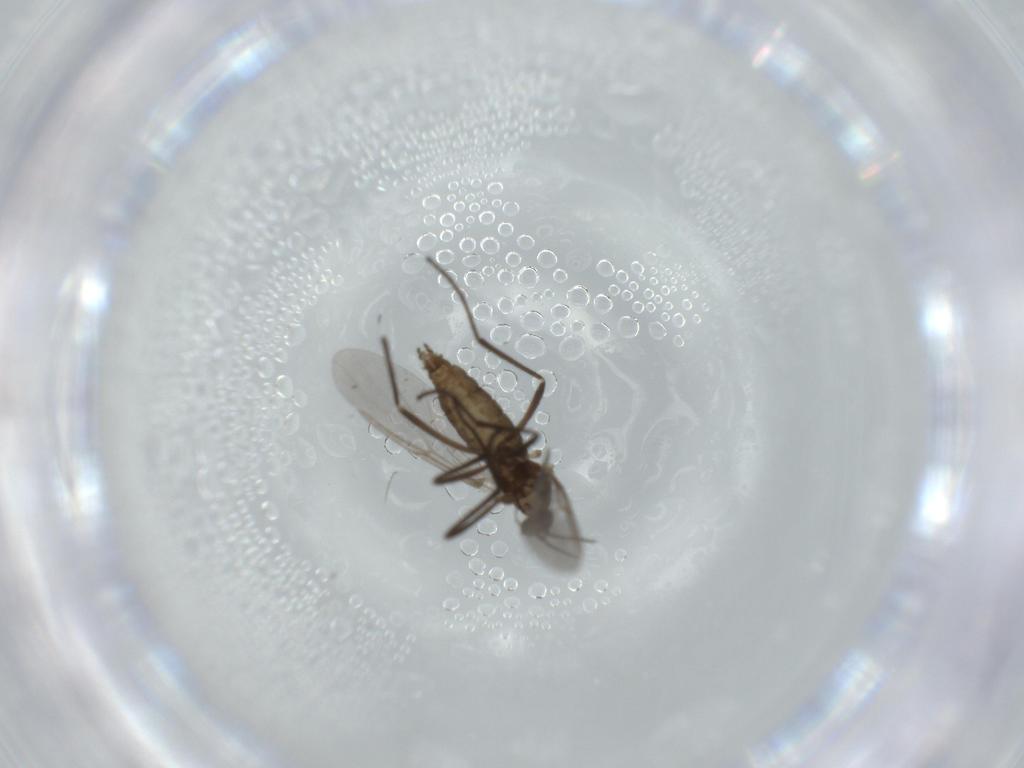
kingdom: Animalia
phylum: Arthropoda
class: Insecta
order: Diptera
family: Cecidomyiidae
